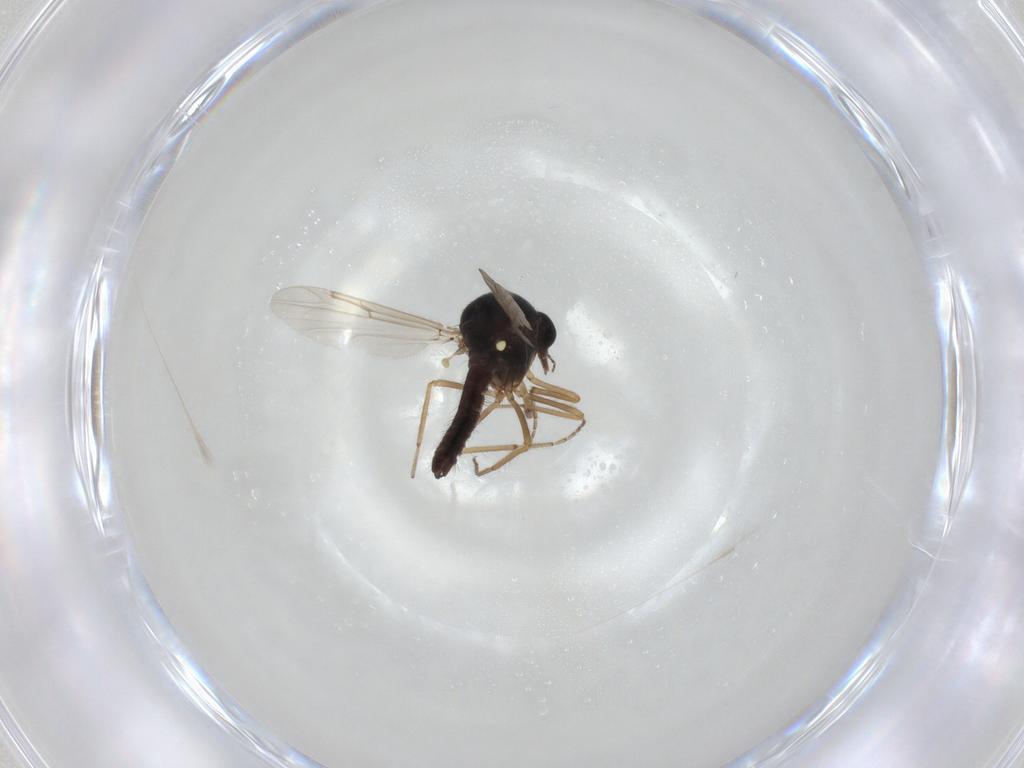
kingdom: Animalia
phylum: Arthropoda
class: Insecta
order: Diptera
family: Ceratopogonidae
